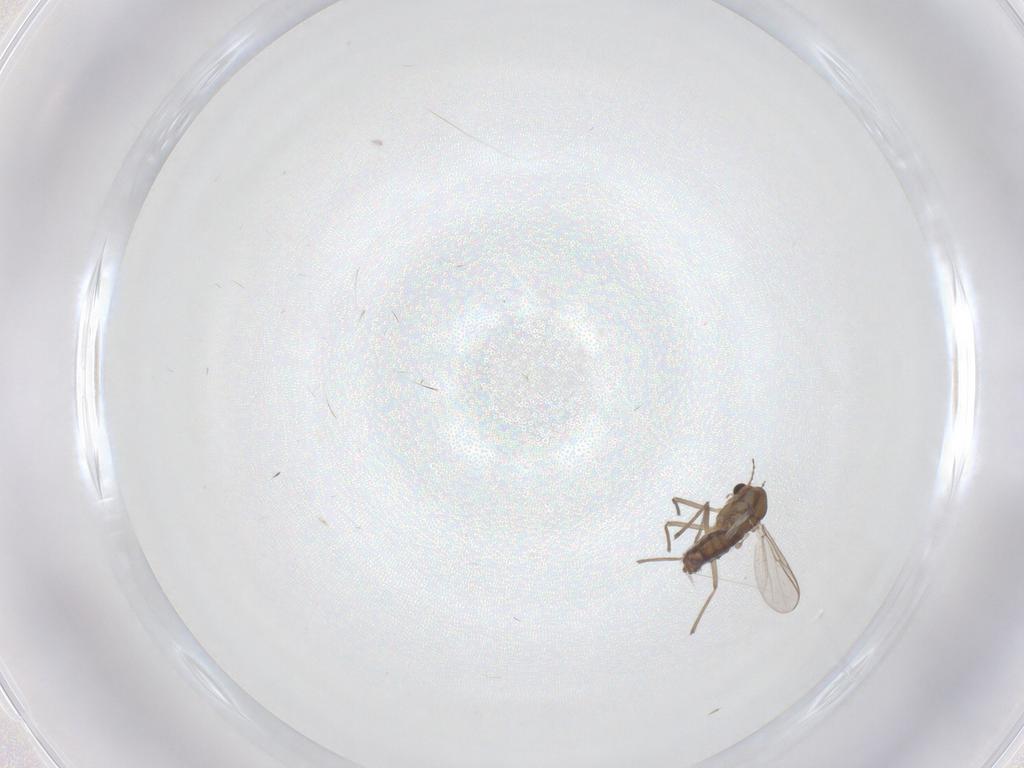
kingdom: Animalia
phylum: Arthropoda
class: Insecta
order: Diptera
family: Chironomidae
